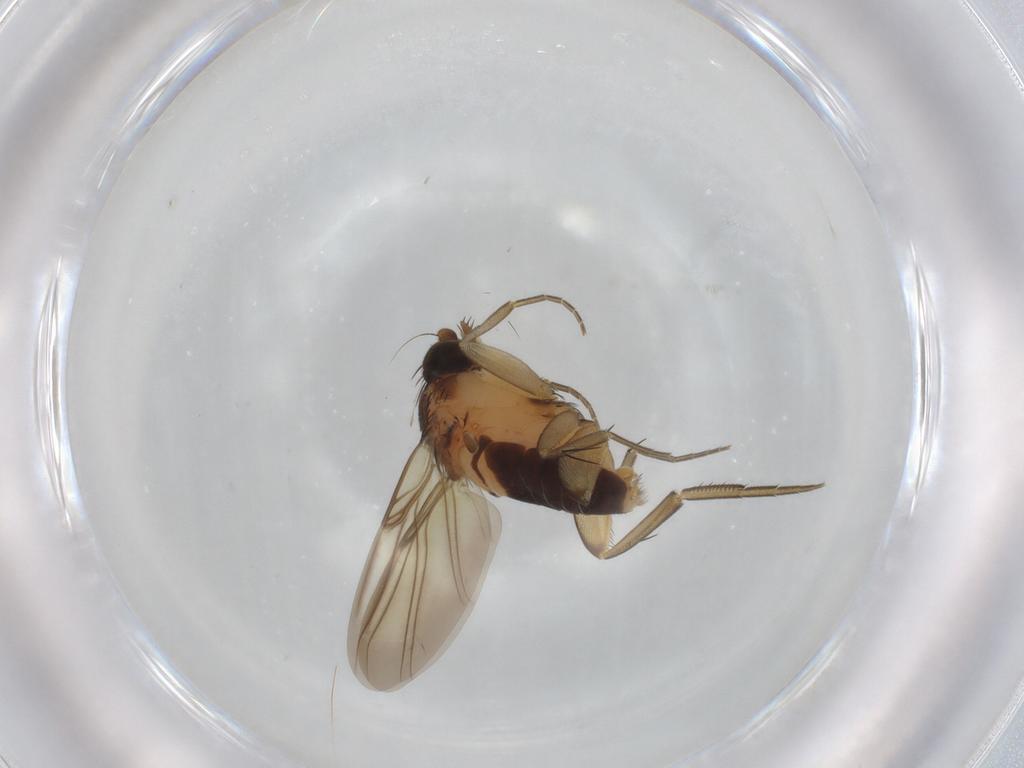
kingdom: Animalia
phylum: Arthropoda
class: Insecta
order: Diptera
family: Phoridae
